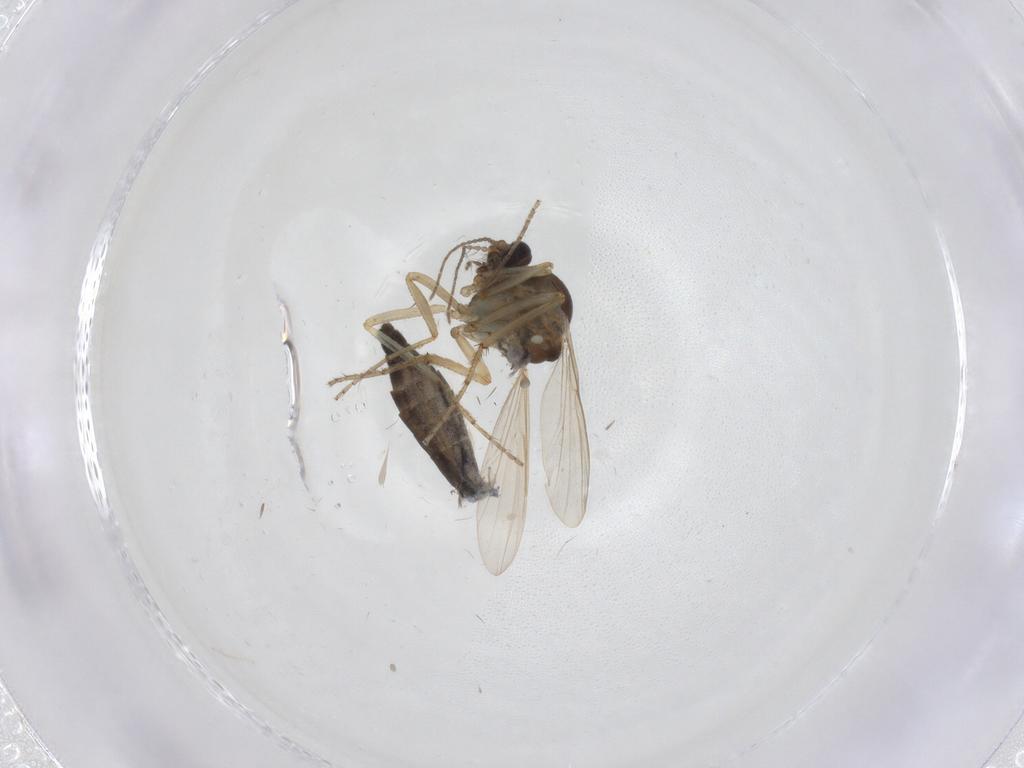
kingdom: Animalia
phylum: Arthropoda
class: Insecta
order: Diptera
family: Ceratopogonidae
